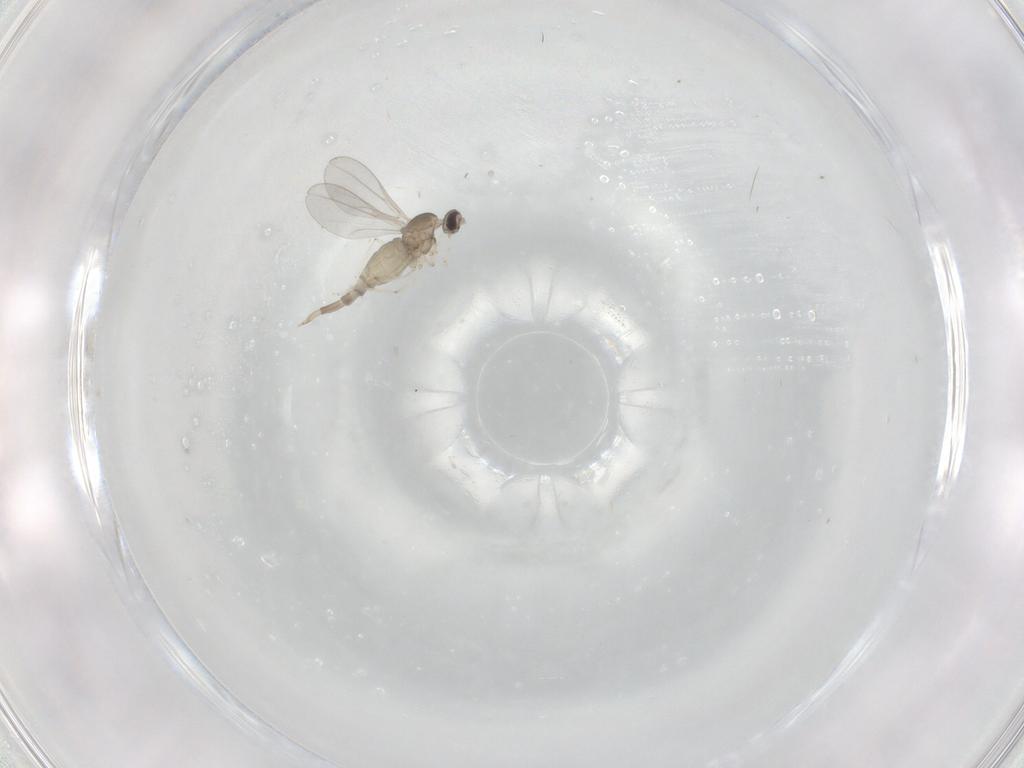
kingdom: Animalia
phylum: Arthropoda
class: Insecta
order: Diptera
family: Cecidomyiidae
